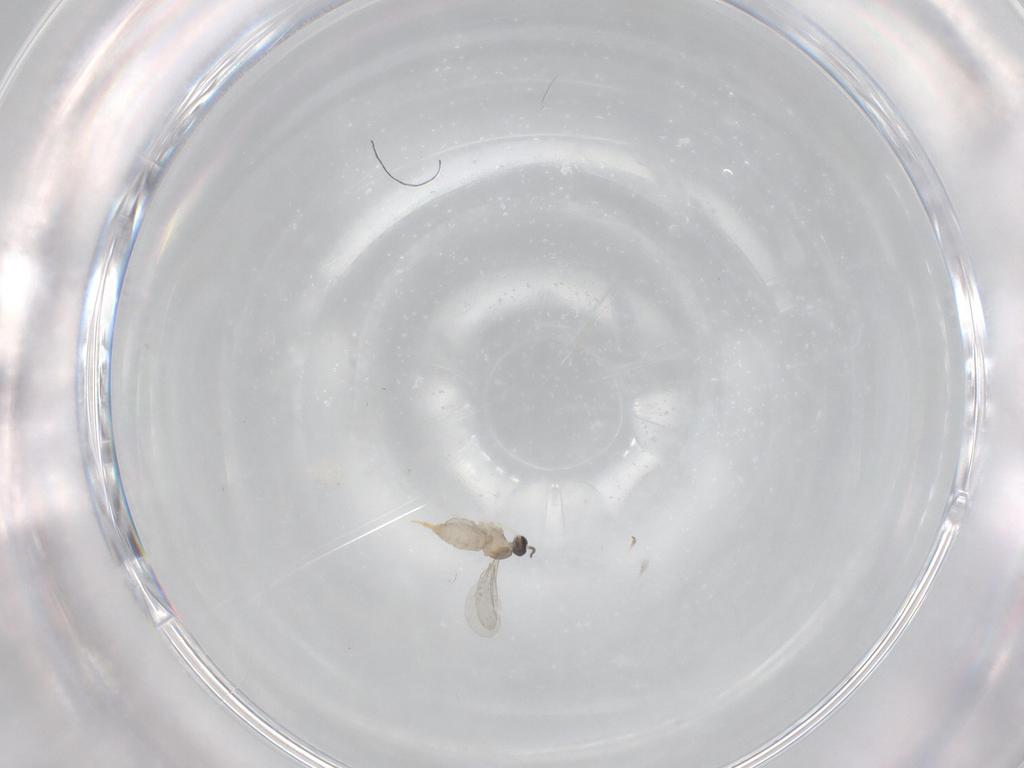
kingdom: Animalia
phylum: Arthropoda
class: Insecta
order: Diptera
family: Cecidomyiidae
